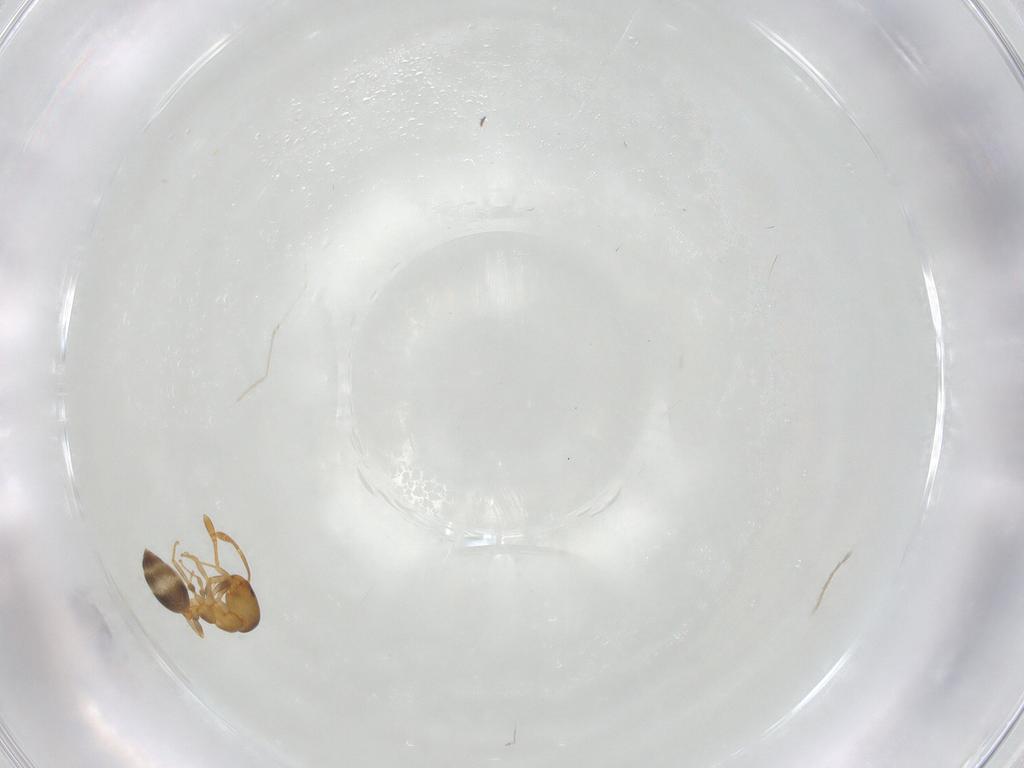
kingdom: Animalia
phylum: Arthropoda
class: Insecta
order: Hymenoptera
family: Formicidae
